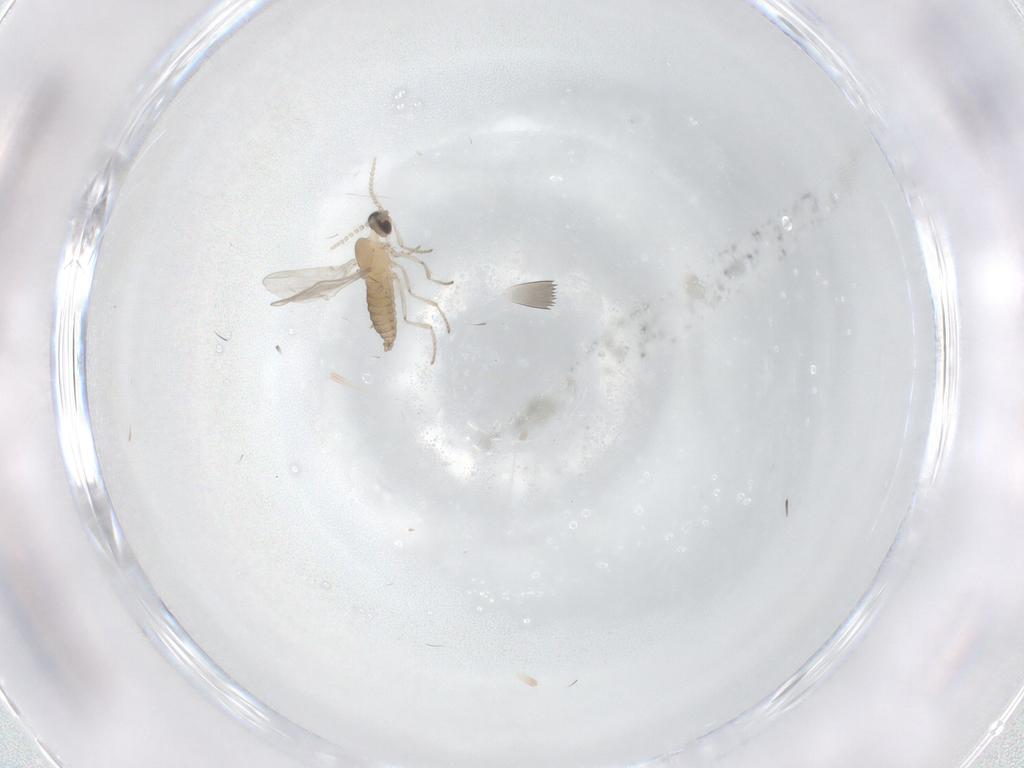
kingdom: Animalia
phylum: Arthropoda
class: Insecta
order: Diptera
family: Cecidomyiidae
